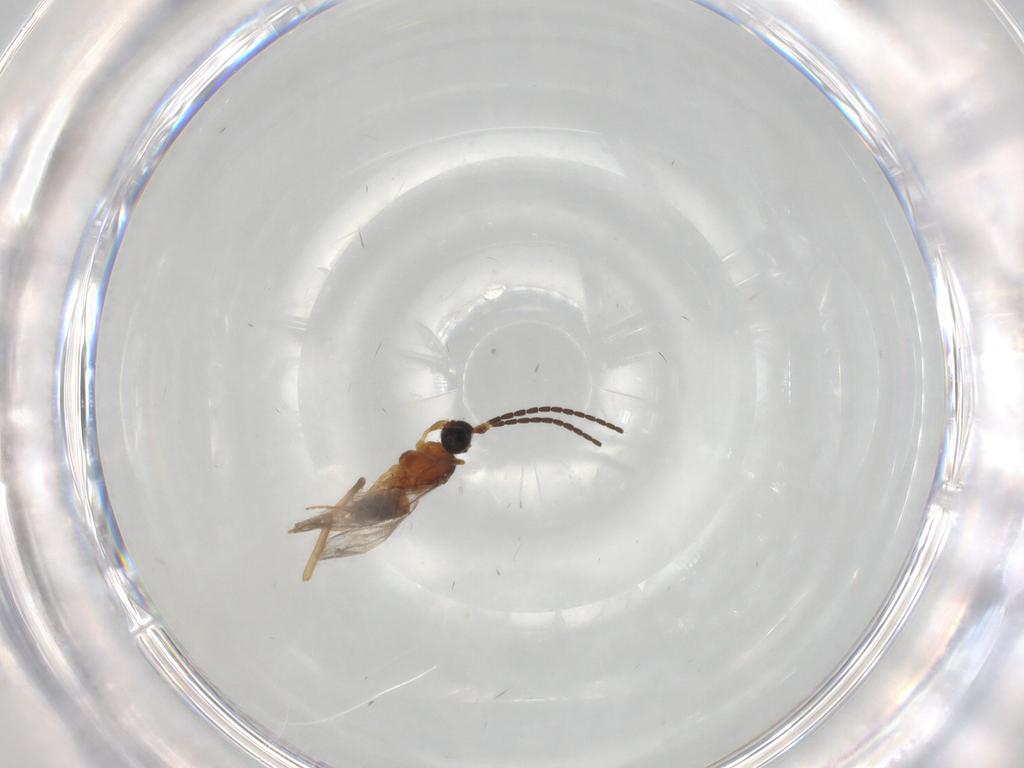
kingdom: Animalia
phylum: Arthropoda
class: Insecta
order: Hymenoptera
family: Braconidae
